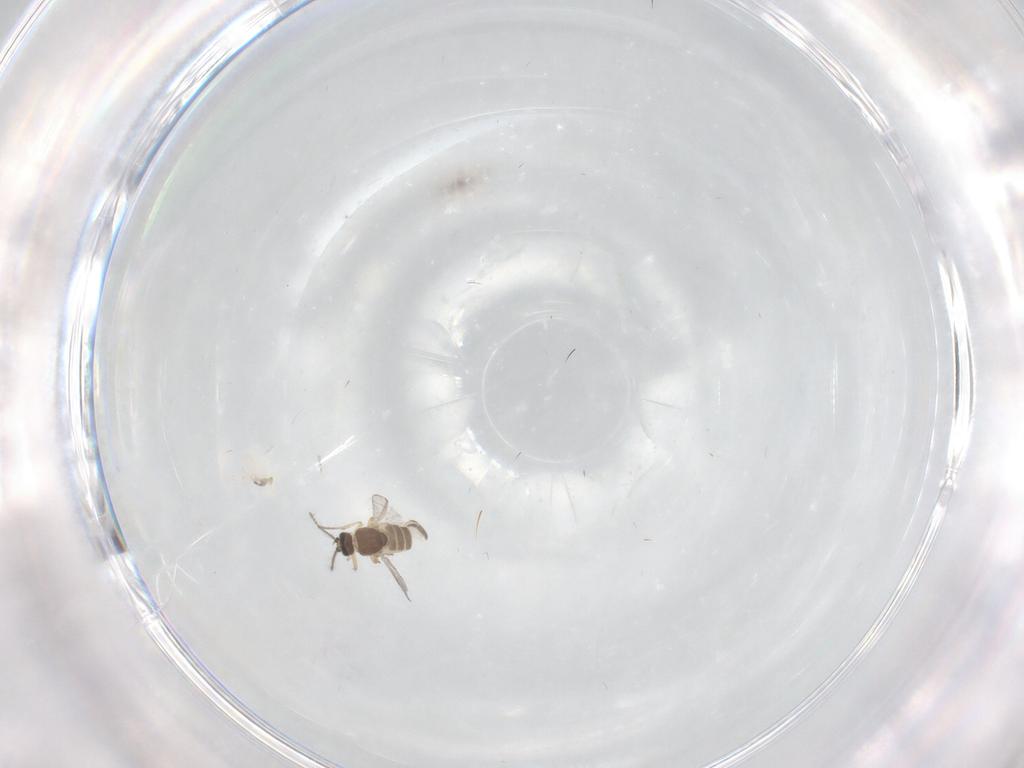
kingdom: Animalia
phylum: Arthropoda
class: Insecta
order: Diptera
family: Ceratopogonidae
